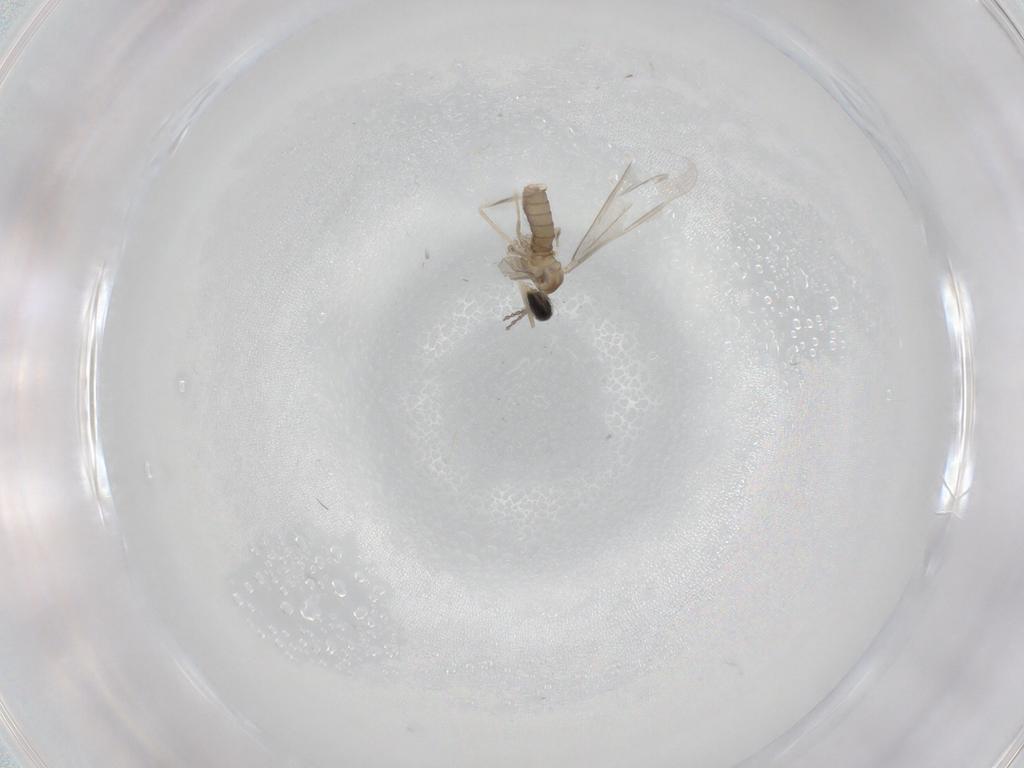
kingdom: Animalia
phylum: Arthropoda
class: Insecta
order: Diptera
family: Cecidomyiidae
